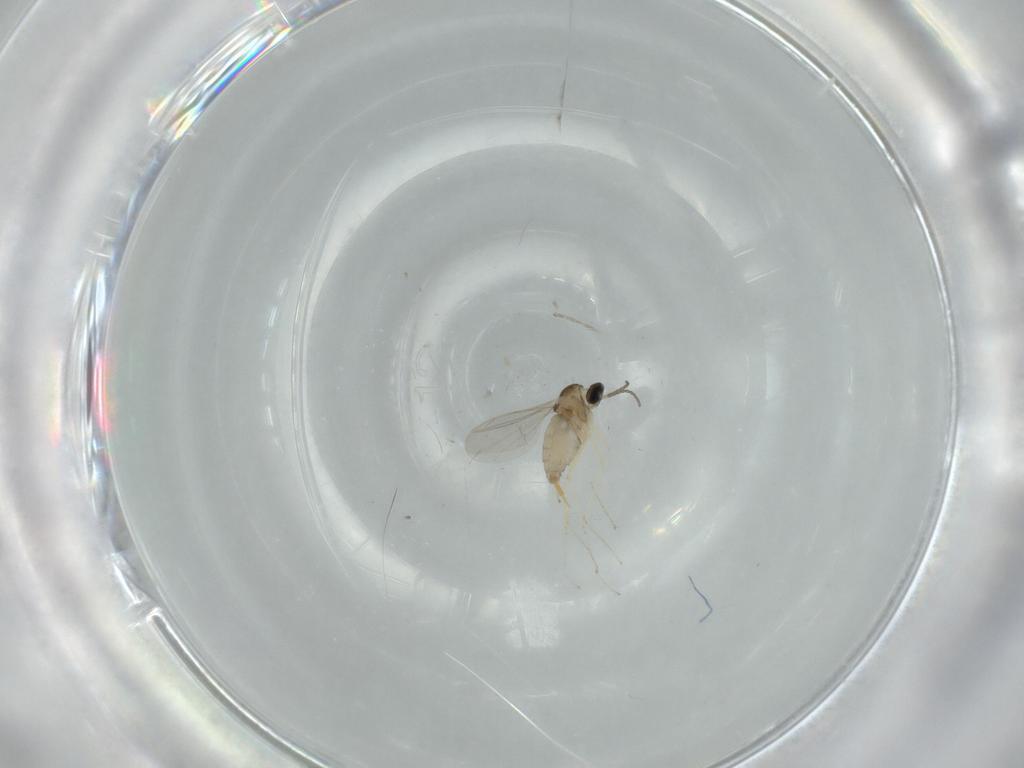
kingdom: Animalia
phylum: Arthropoda
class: Insecta
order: Diptera
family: Cecidomyiidae
